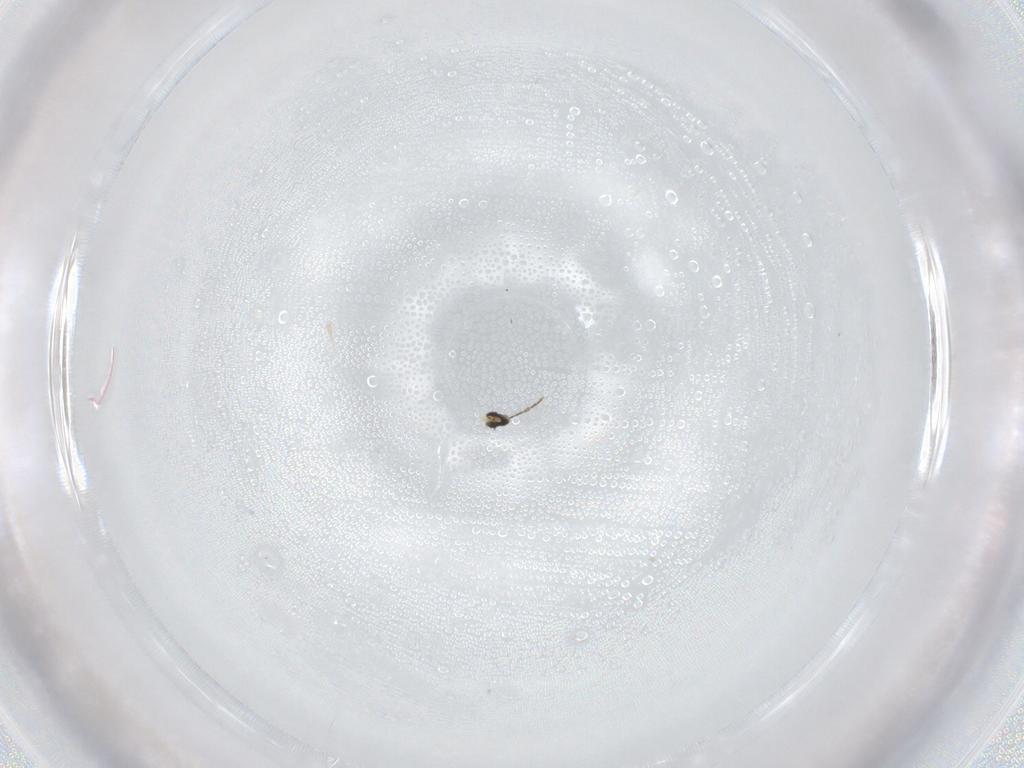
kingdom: Animalia
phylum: Arthropoda
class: Insecta
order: Diptera
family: Cecidomyiidae
